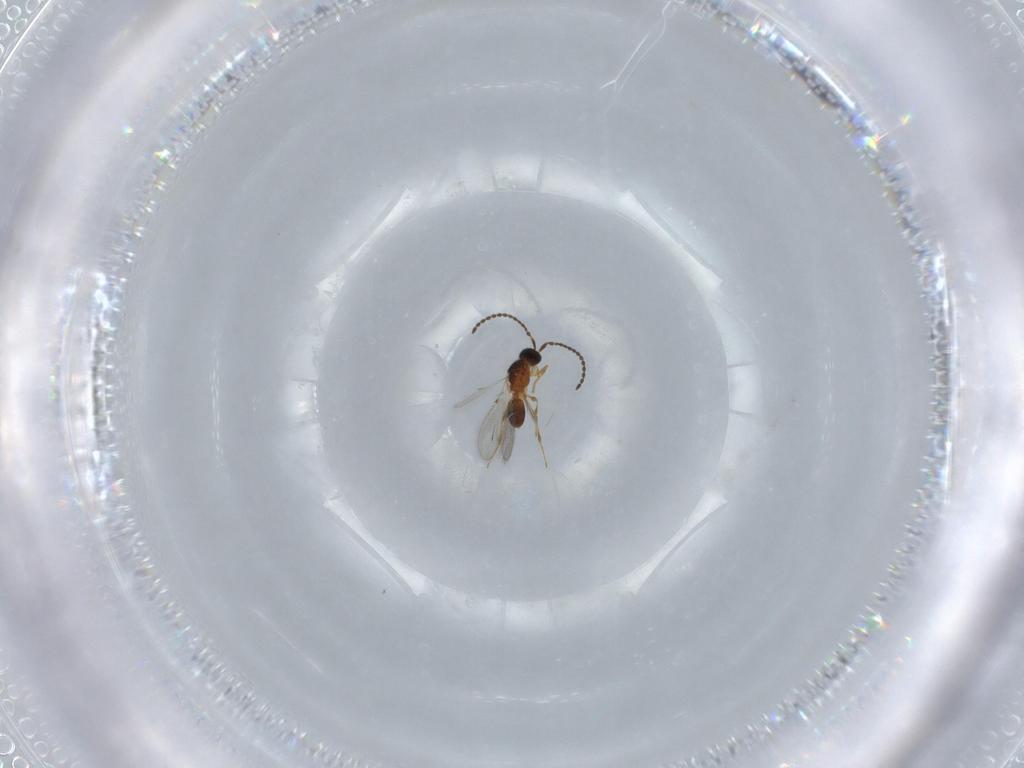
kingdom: Animalia
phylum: Arthropoda
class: Insecta
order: Hymenoptera
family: Diapriidae
